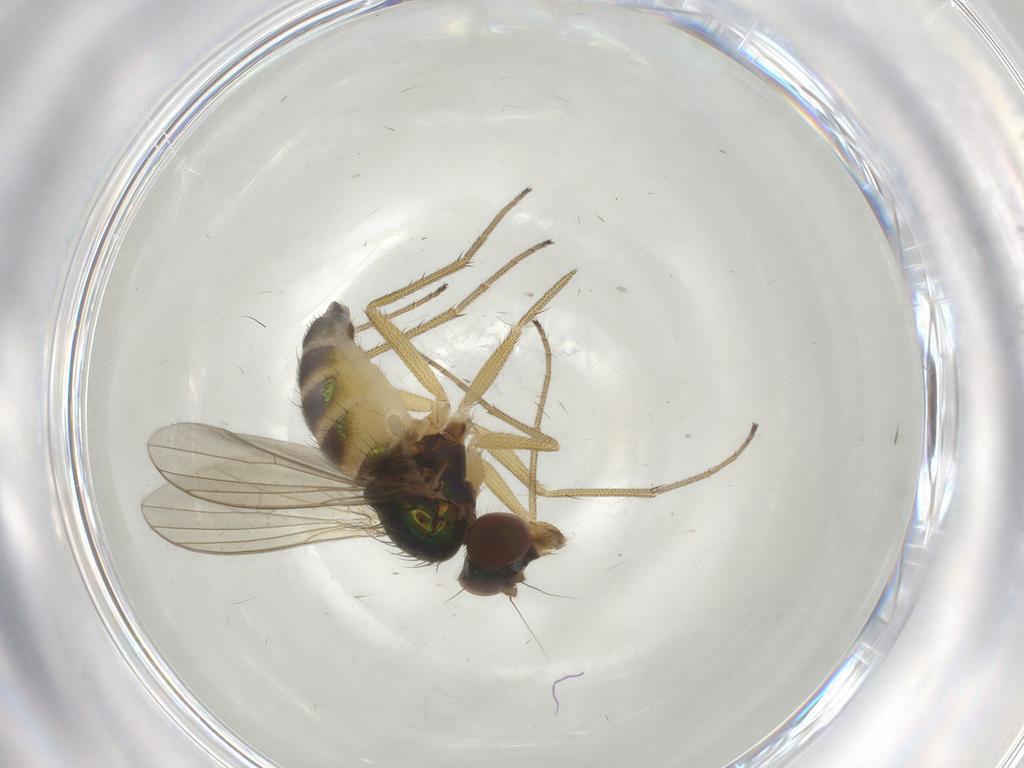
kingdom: Animalia
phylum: Arthropoda
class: Insecta
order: Diptera
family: Dolichopodidae
